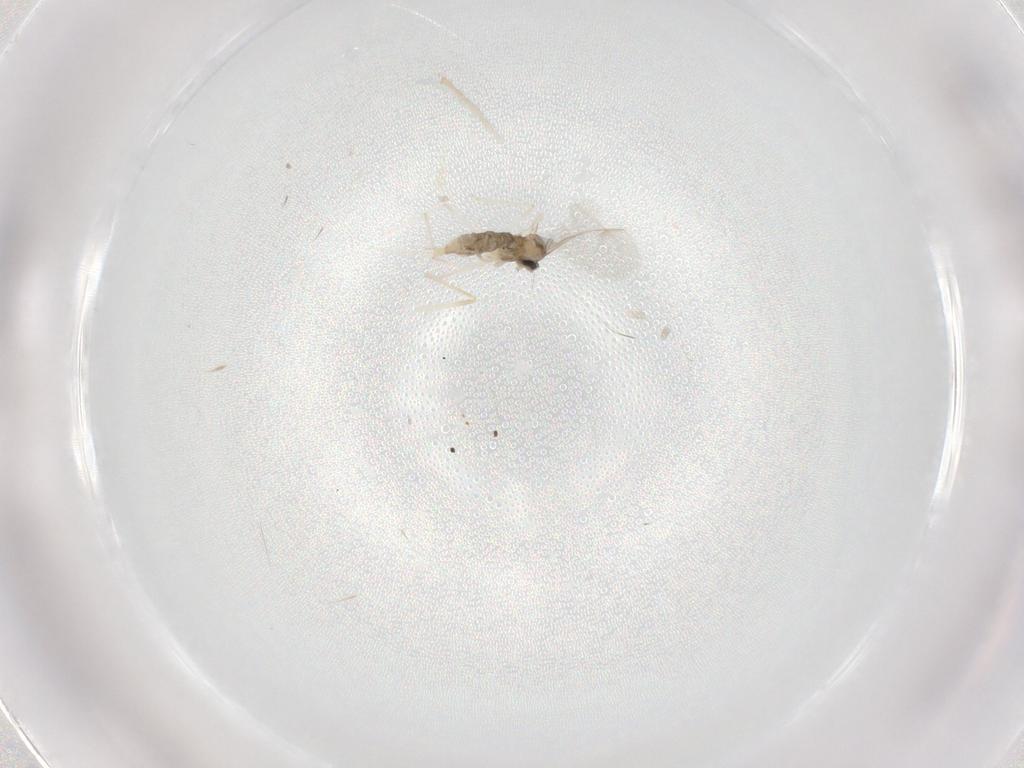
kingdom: Animalia
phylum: Arthropoda
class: Insecta
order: Diptera
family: Cecidomyiidae
